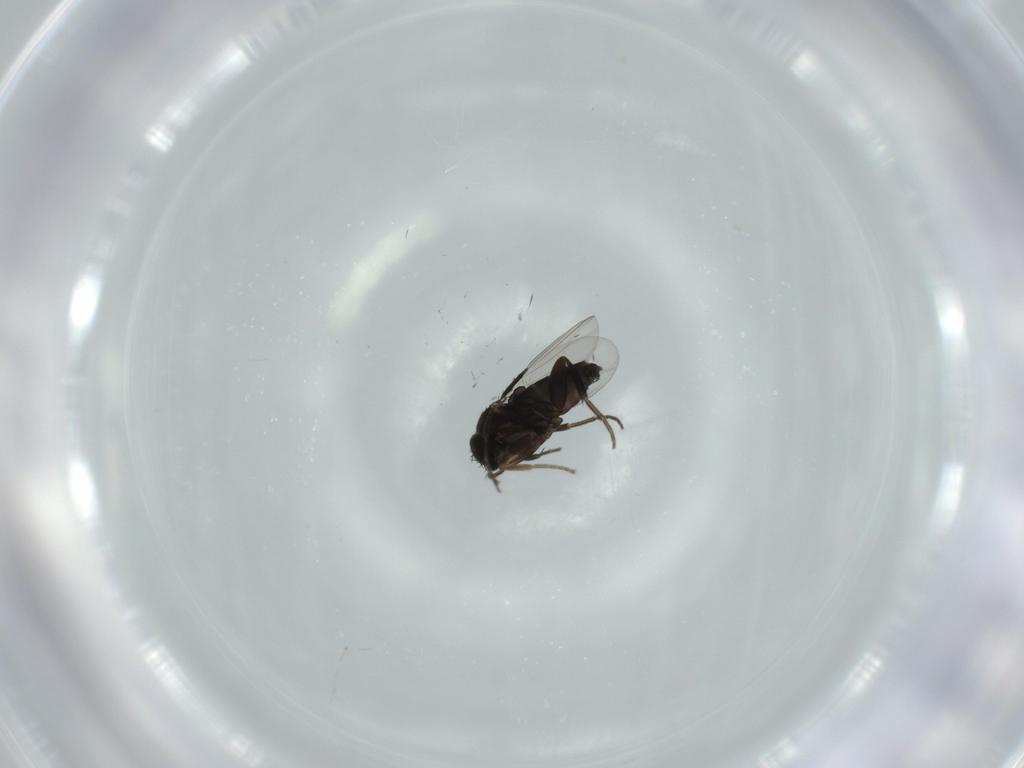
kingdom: Animalia
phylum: Arthropoda
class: Insecta
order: Diptera
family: Phoridae
